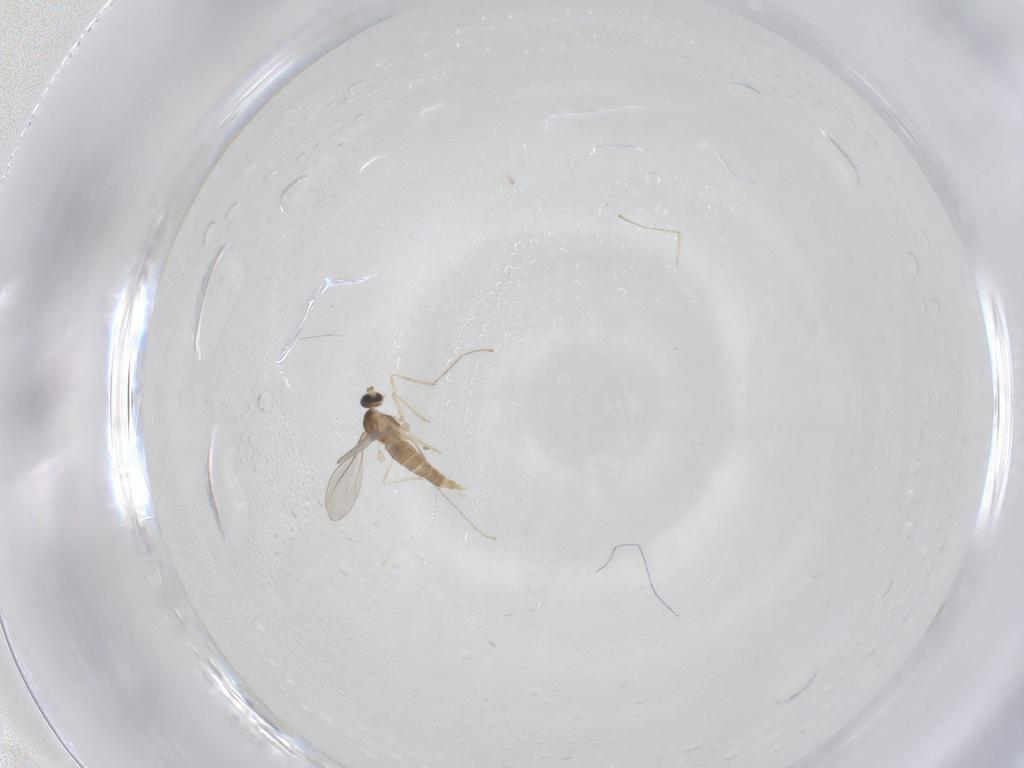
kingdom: Animalia
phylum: Arthropoda
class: Insecta
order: Diptera
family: Cecidomyiidae
